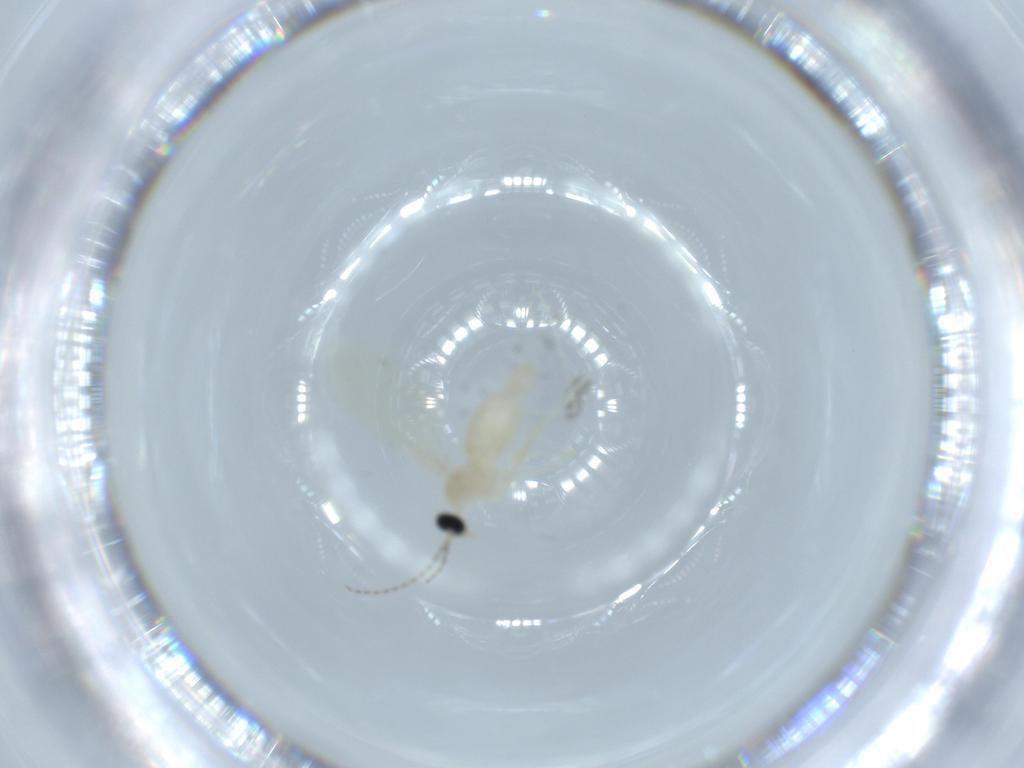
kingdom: Animalia
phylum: Arthropoda
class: Insecta
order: Diptera
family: Cecidomyiidae
